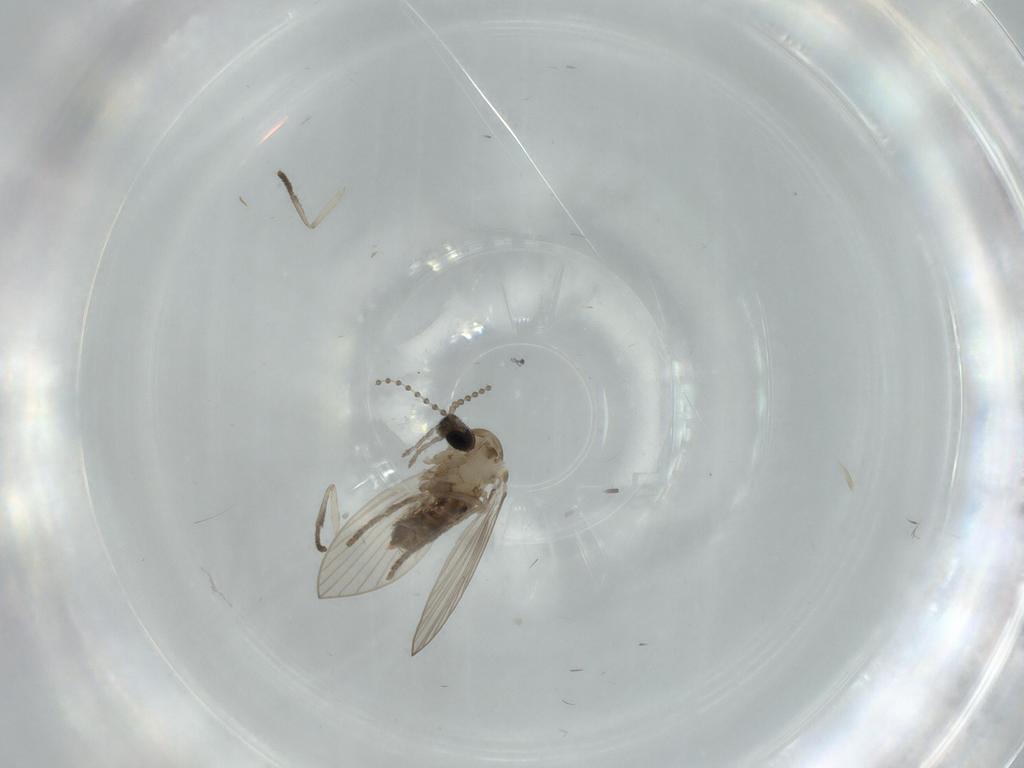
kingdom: Animalia
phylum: Arthropoda
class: Insecta
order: Diptera
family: Psychodidae
